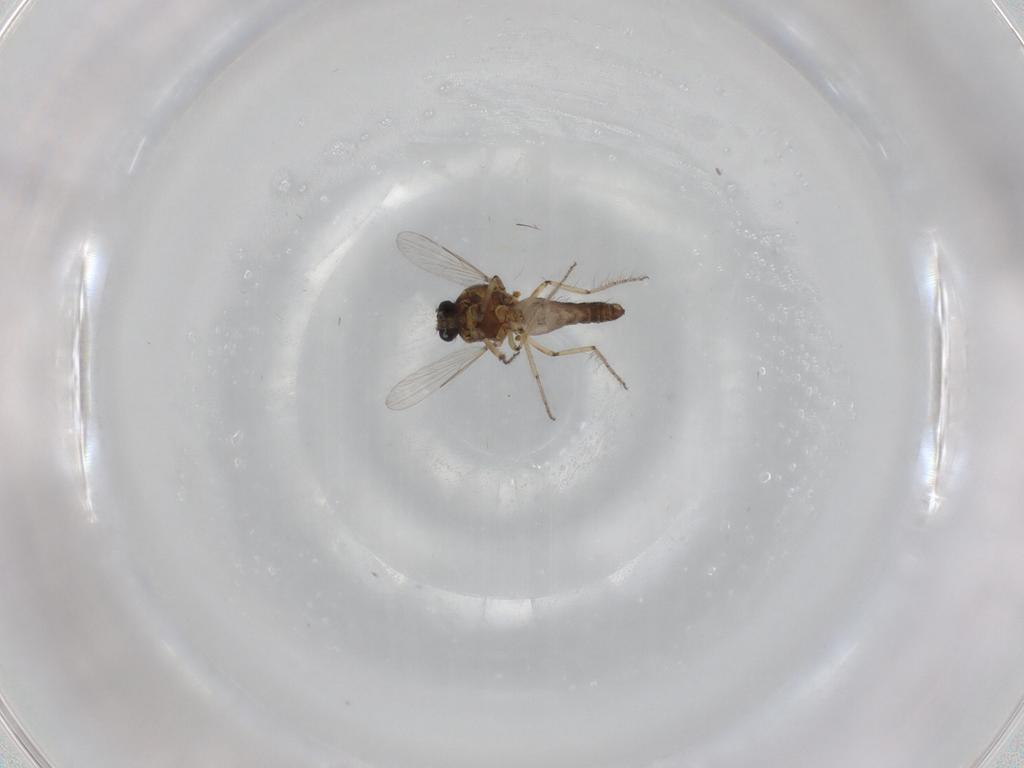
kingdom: Animalia
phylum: Arthropoda
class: Insecta
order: Diptera
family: Ceratopogonidae
